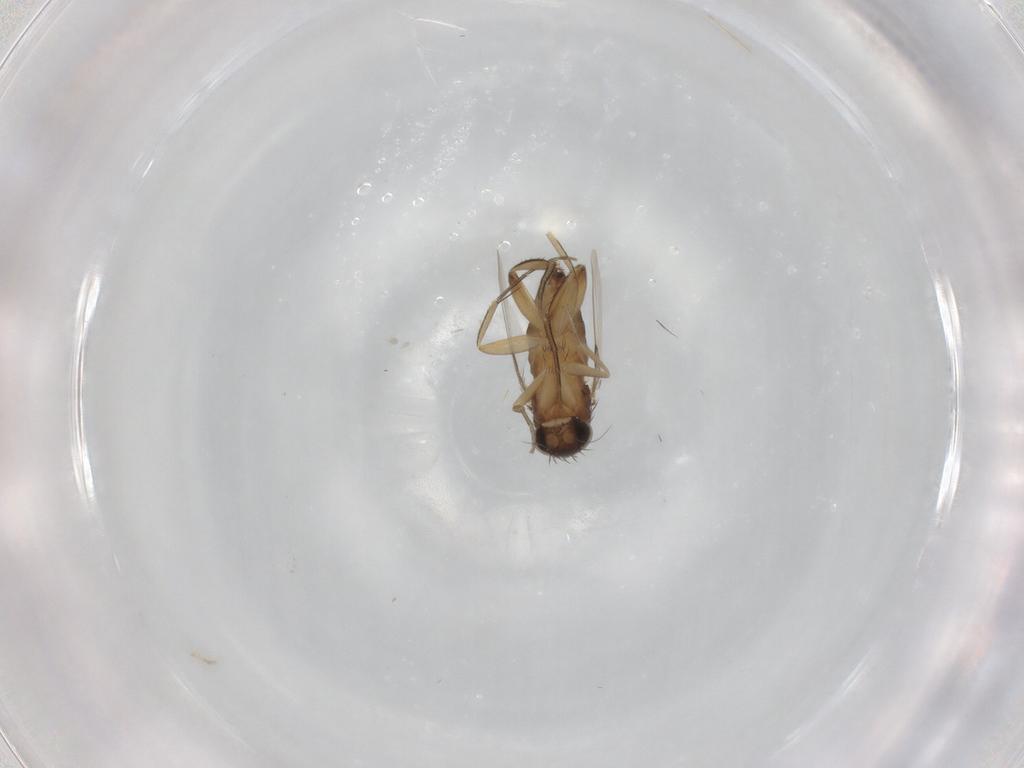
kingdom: Animalia
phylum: Arthropoda
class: Insecta
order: Diptera
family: Phoridae
